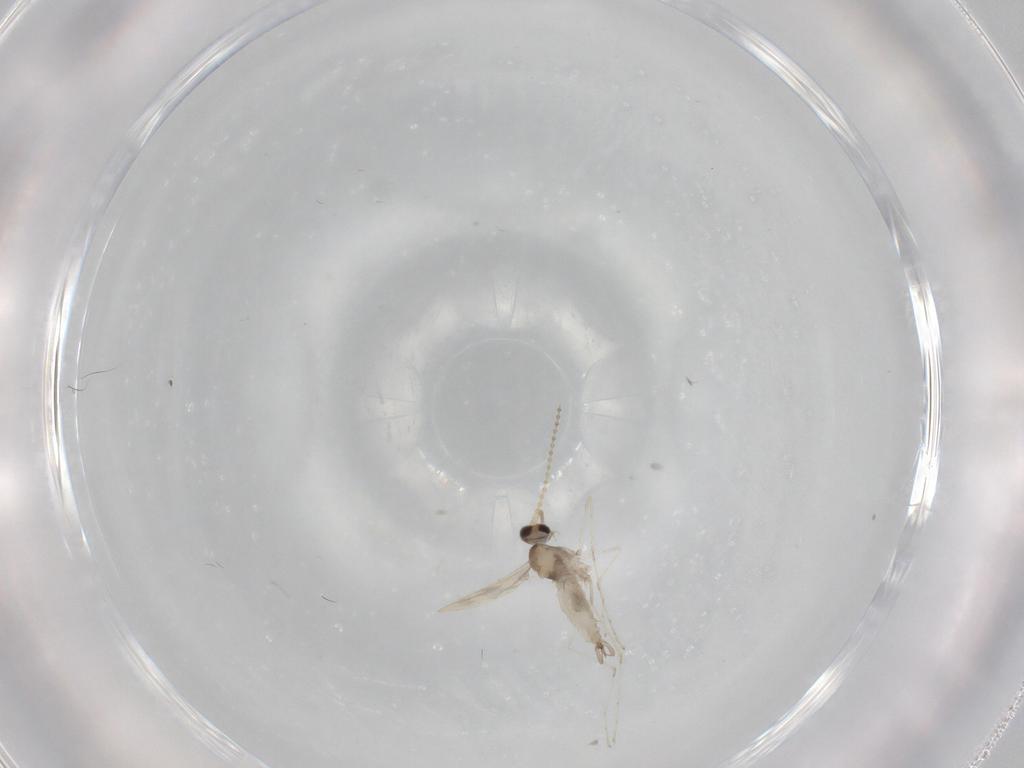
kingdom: Animalia
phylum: Arthropoda
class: Insecta
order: Diptera
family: Cecidomyiidae
